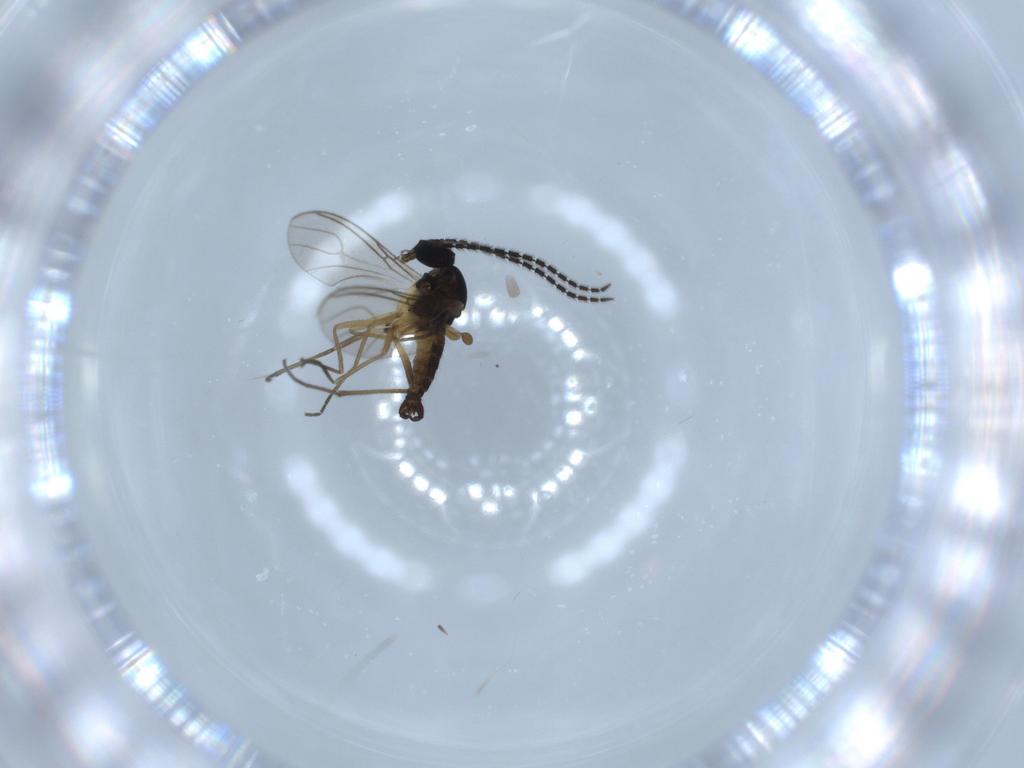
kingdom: Animalia
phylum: Arthropoda
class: Insecta
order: Diptera
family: Sciaridae
